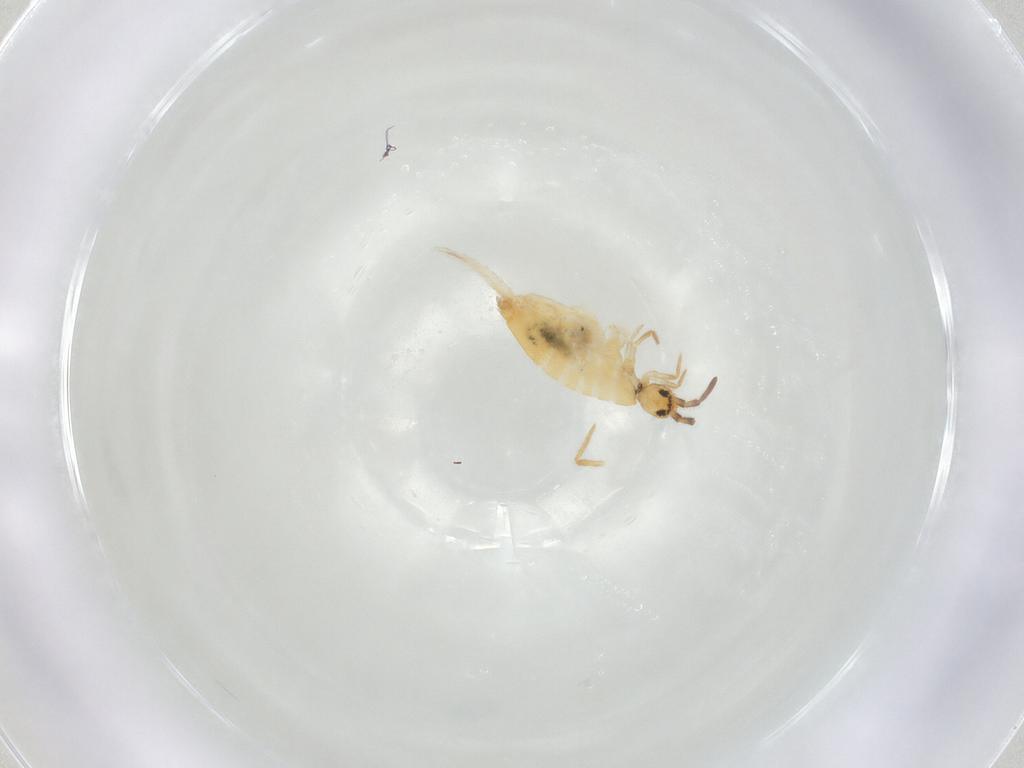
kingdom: Animalia
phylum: Arthropoda
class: Collembola
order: Entomobryomorpha
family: Entomobryidae
